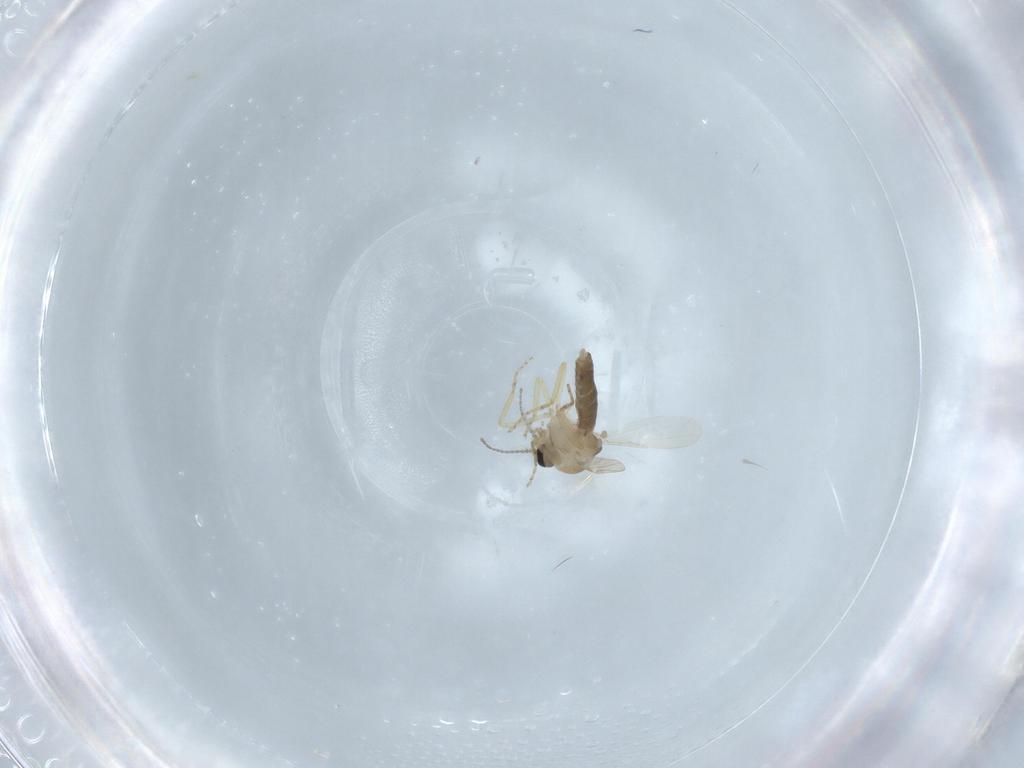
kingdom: Animalia
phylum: Arthropoda
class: Insecta
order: Diptera
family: Ceratopogonidae
